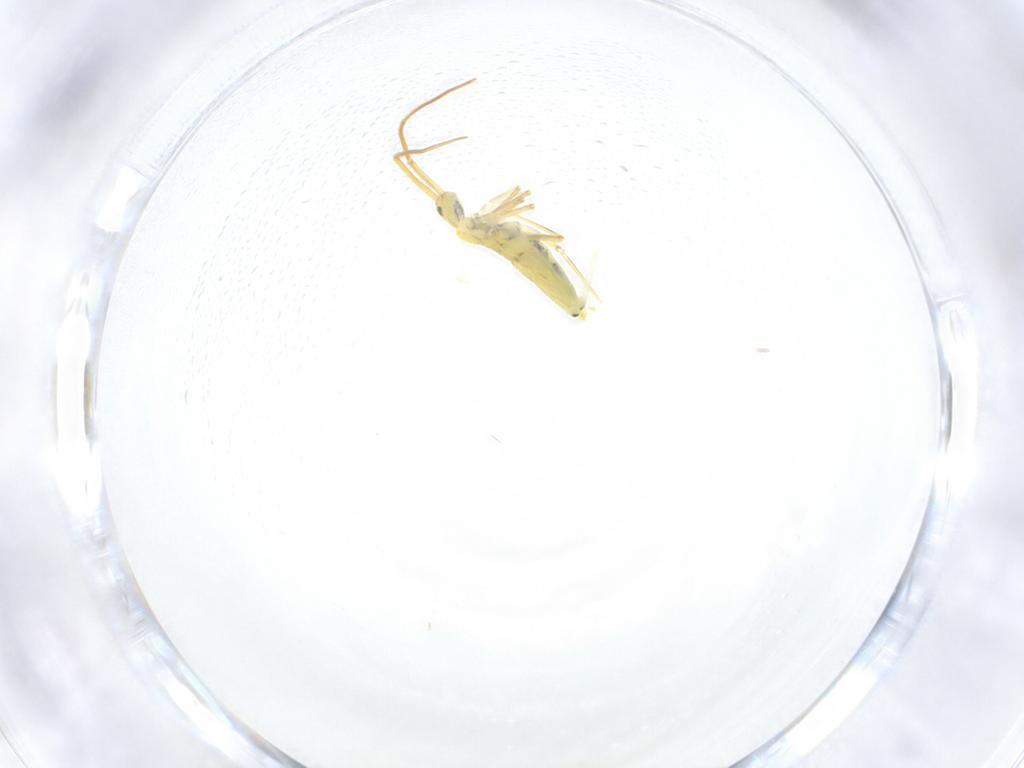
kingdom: Animalia
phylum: Arthropoda
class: Collembola
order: Entomobryomorpha
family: Entomobryidae
